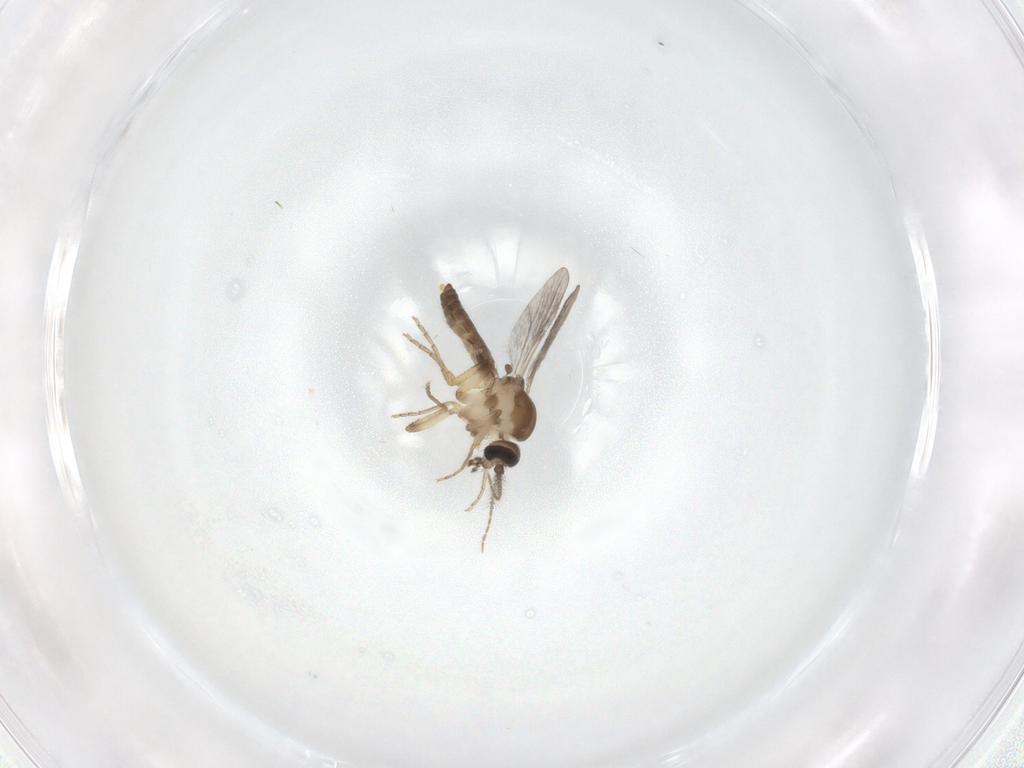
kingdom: Animalia
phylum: Arthropoda
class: Insecta
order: Diptera
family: Ceratopogonidae
